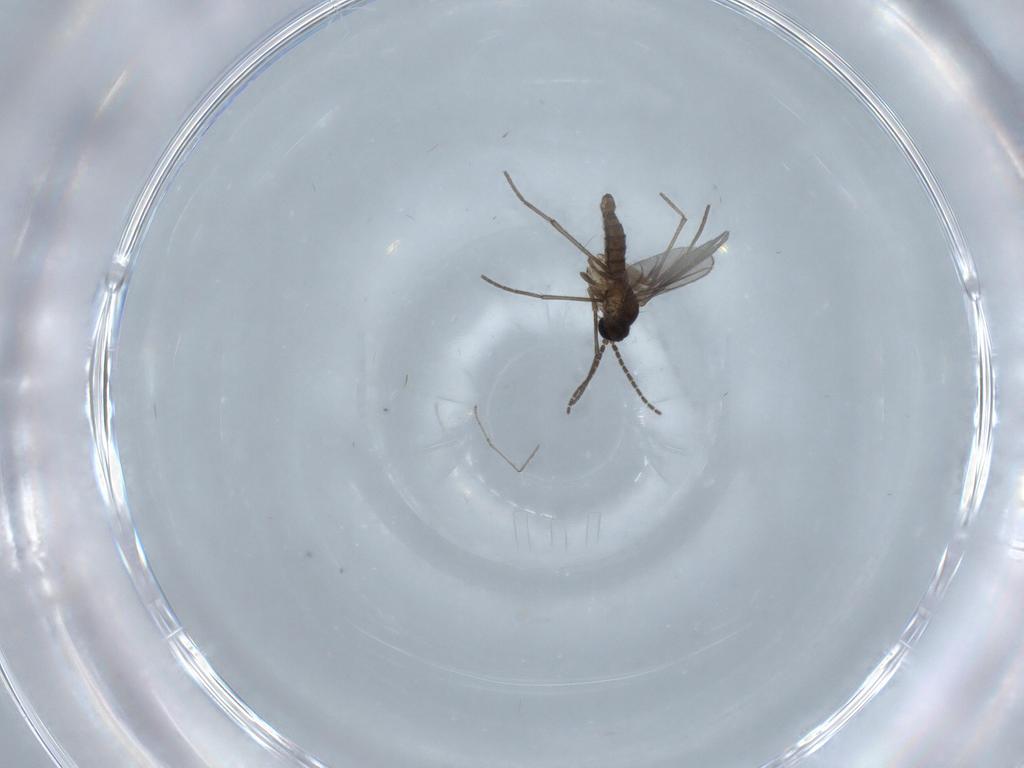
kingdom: Animalia
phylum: Arthropoda
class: Insecta
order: Diptera
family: Sciaridae
